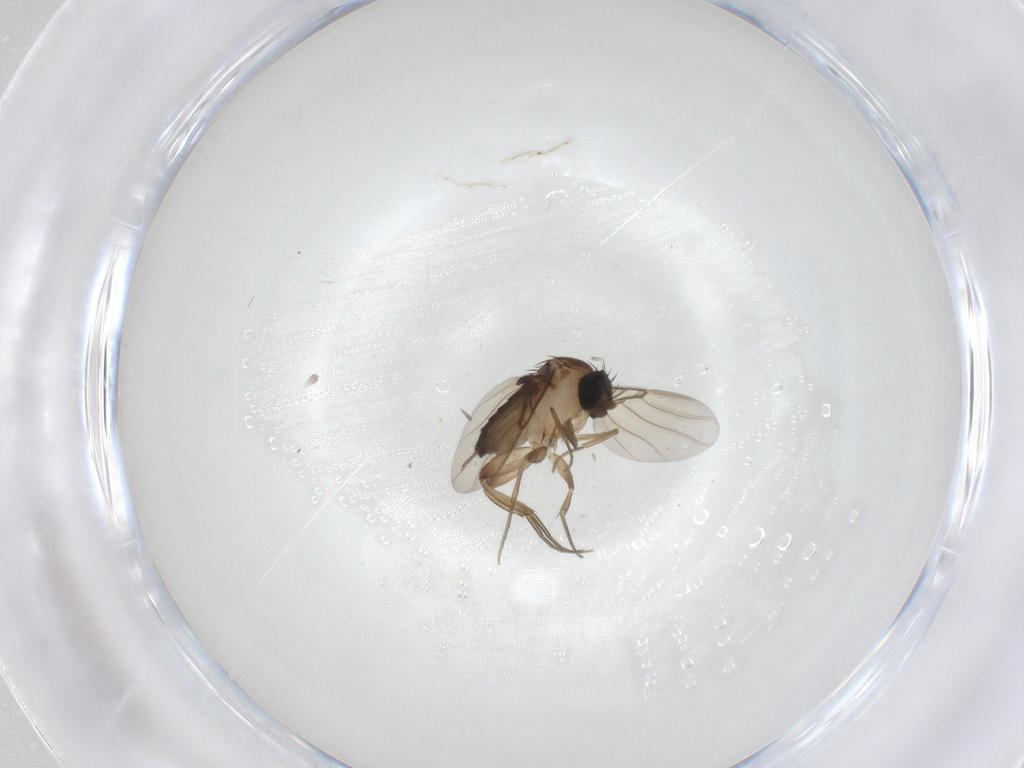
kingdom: Animalia
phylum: Arthropoda
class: Insecta
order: Diptera
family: Phoridae
